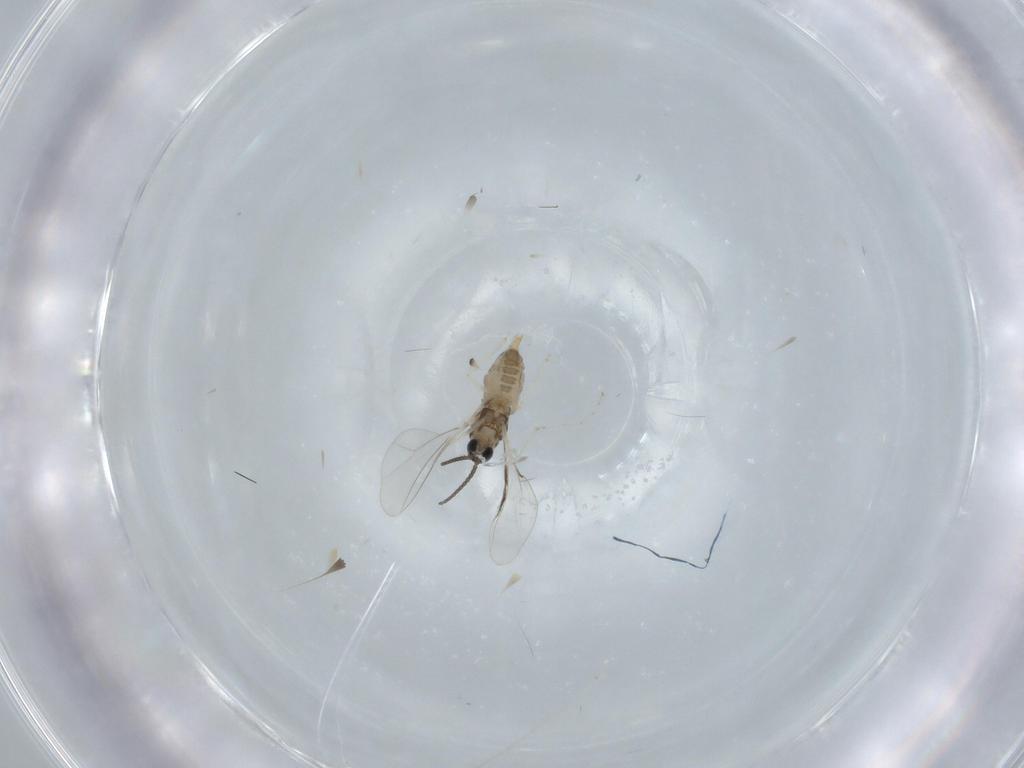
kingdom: Animalia
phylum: Arthropoda
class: Insecta
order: Diptera
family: Cecidomyiidae
